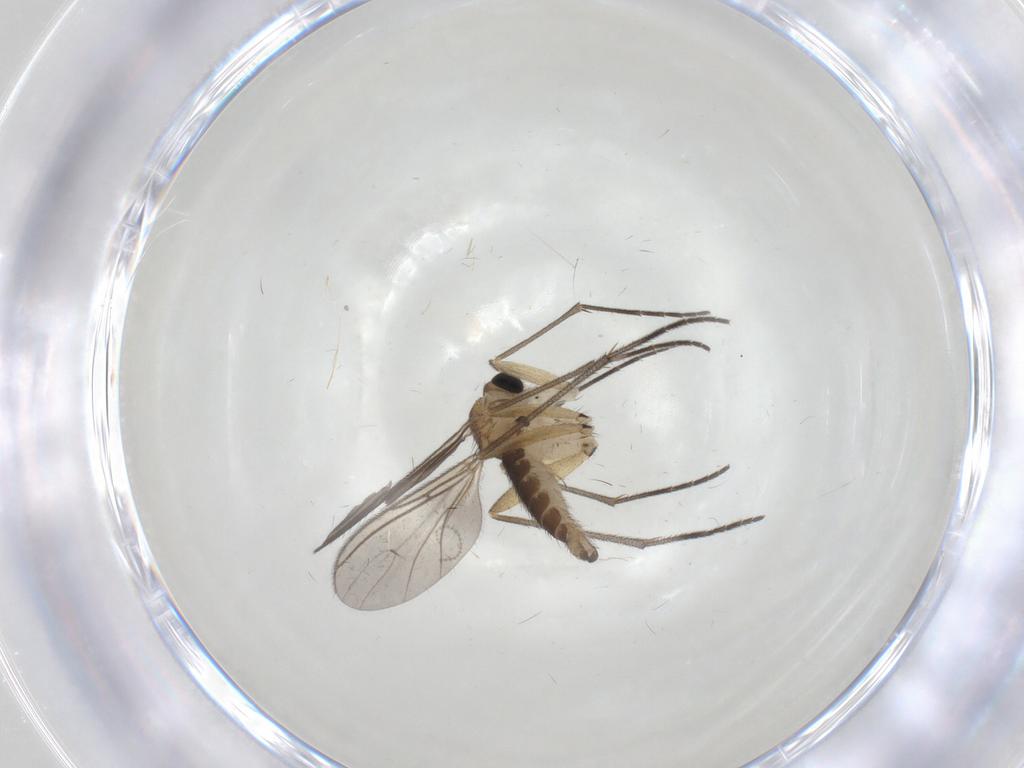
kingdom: Animalia
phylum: Arthropoda
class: Insecta
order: Diptera
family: Sciaridae
